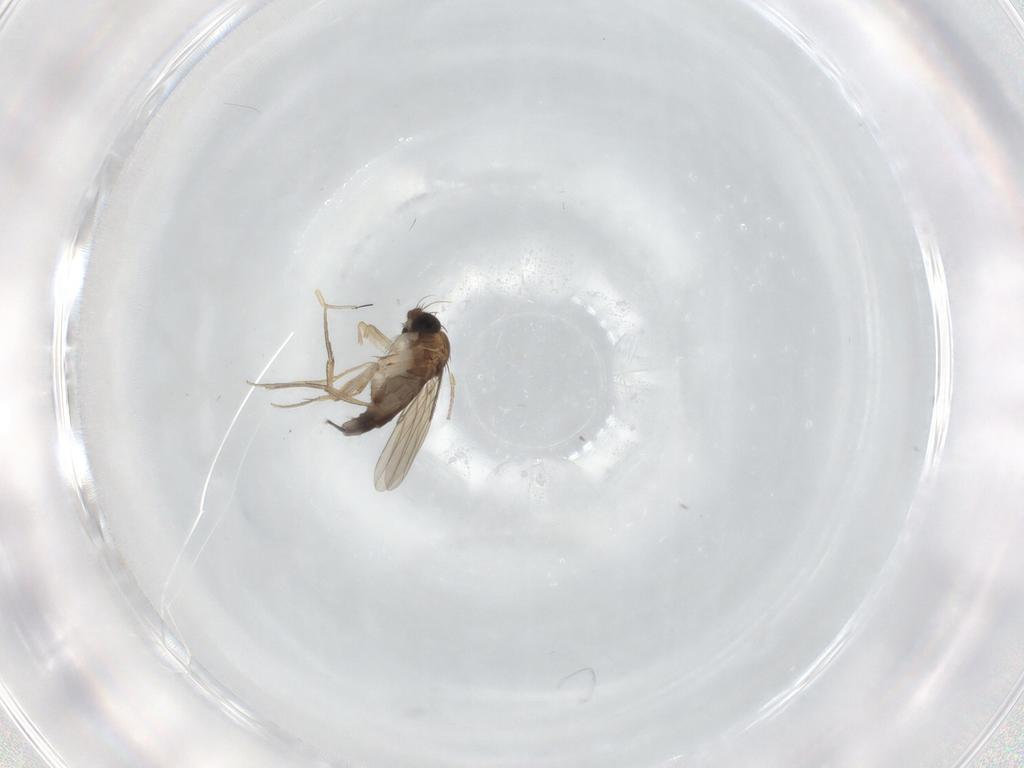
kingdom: Animalia
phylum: Arthropoda
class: Insecta
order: Diptera
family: Phoridae
